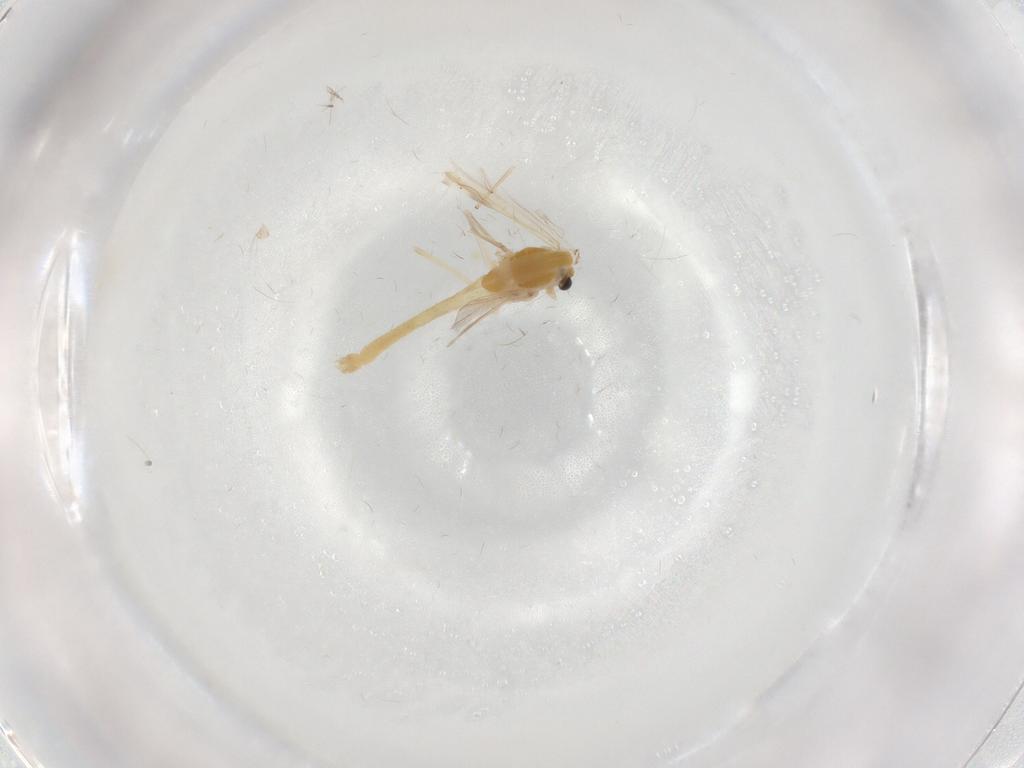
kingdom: Animalia
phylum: Arthropoda
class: Insecta
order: Diptera
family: Chironomidae
